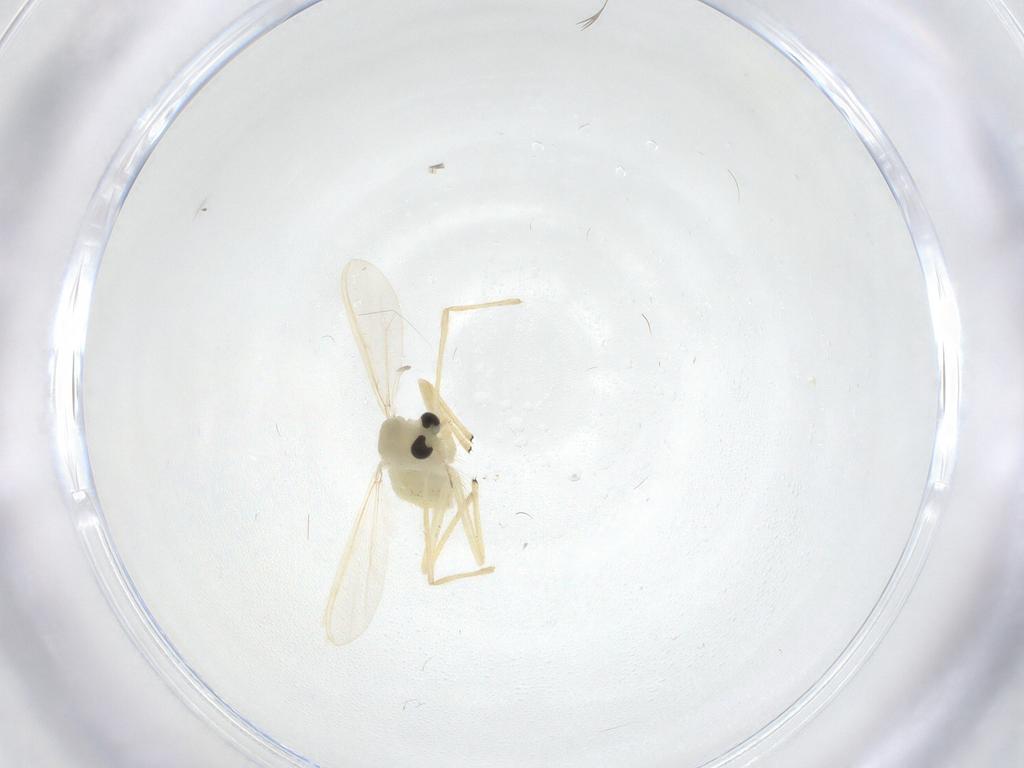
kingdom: Animalia
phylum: Arthropoda
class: Insecta
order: Diptera
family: Chironomidae
